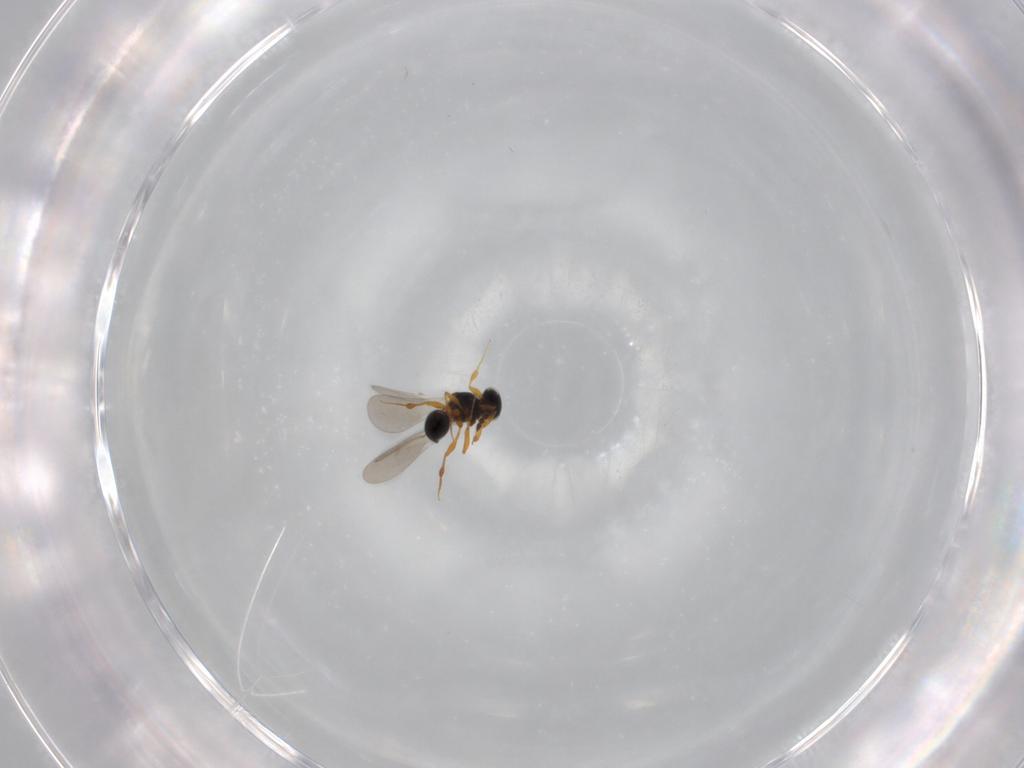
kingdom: Animalia
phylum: Arthropoda
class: Insecta
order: Hymenoptera
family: Platygastridae
